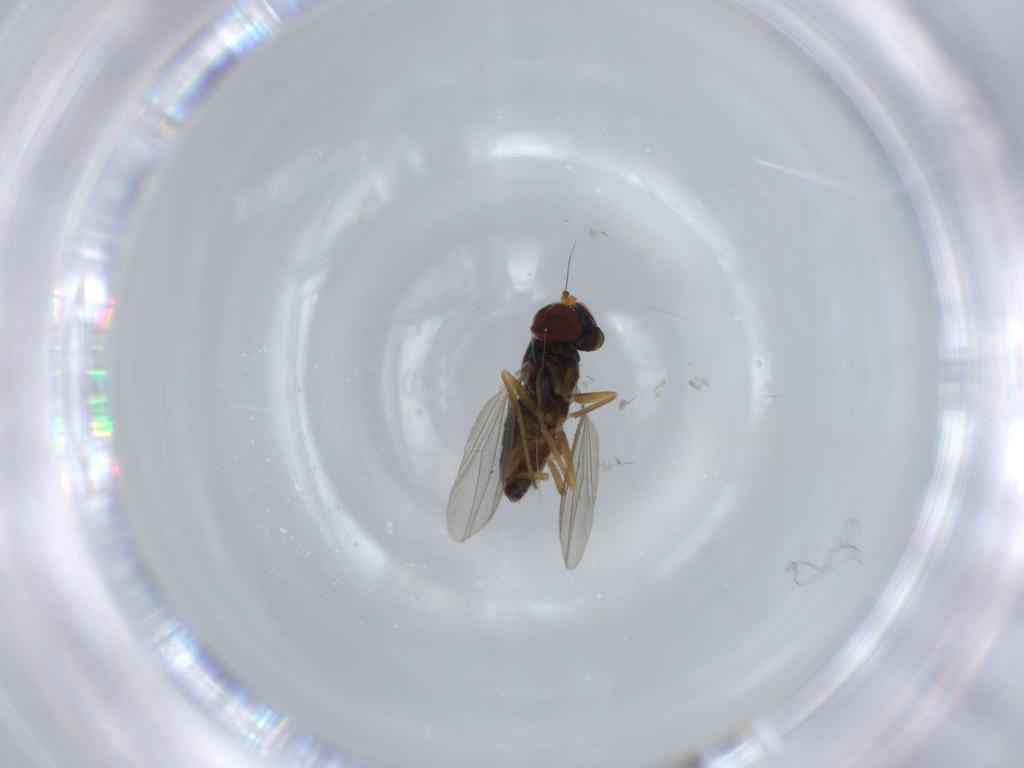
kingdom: Animalia
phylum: Arthropoda
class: Insecta
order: Diptera
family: Dolichopodidae
